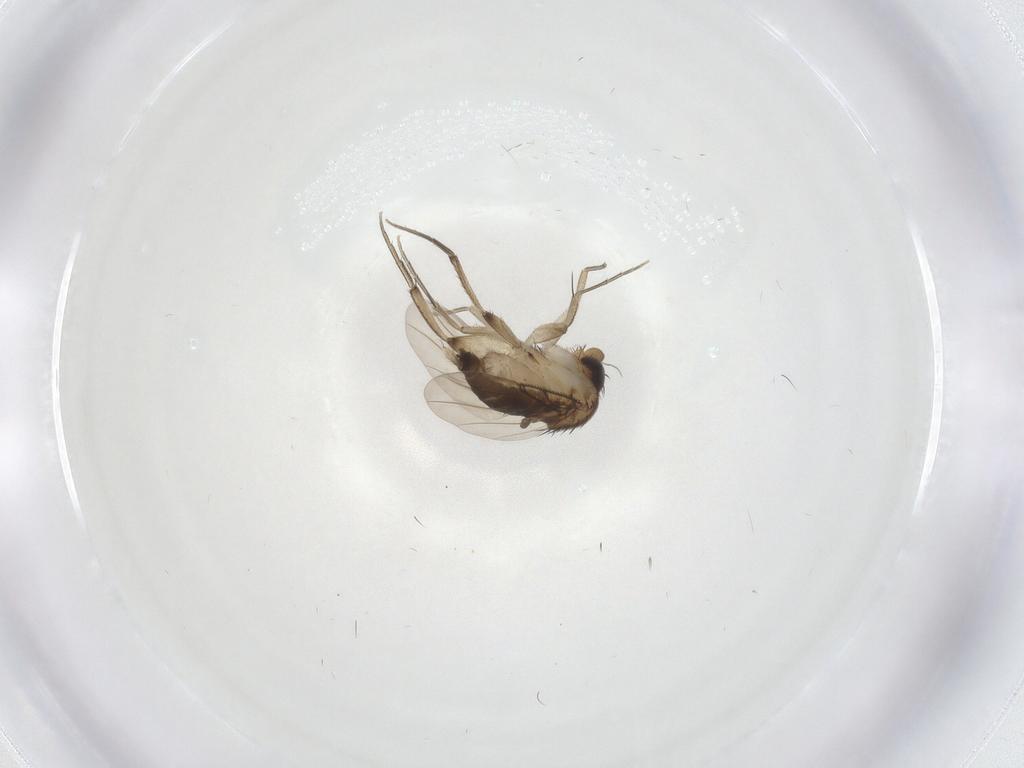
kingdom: Animalia
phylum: Arthropoda
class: Insecta
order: Diptera
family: Phoridae
